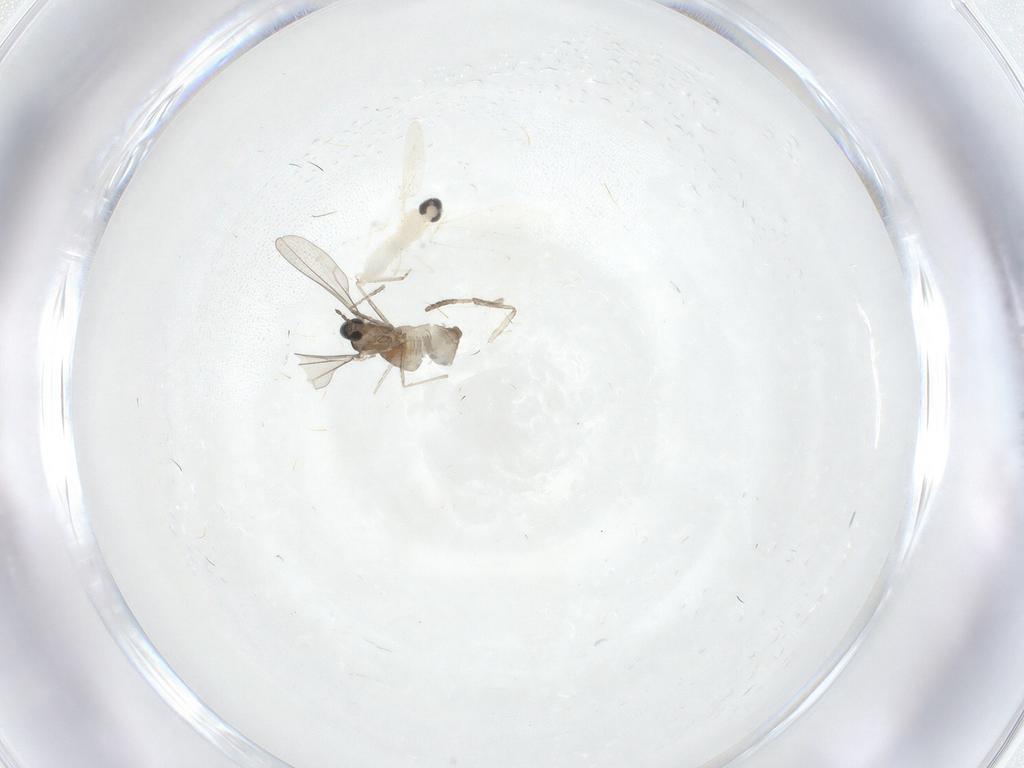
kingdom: Animalia
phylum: Arthropoda
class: Insecta
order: Diptera
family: Cecidomyiidae
